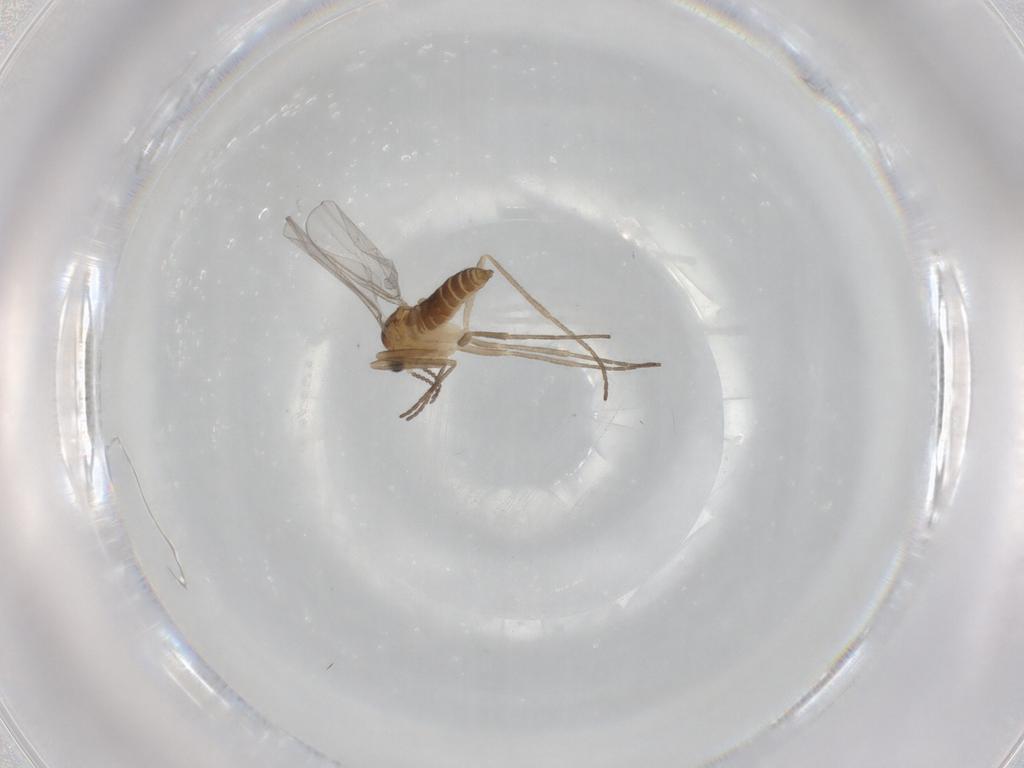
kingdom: Animalia
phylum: Arthropoda
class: Insecta
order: Diptera
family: Cecidomyiidae
